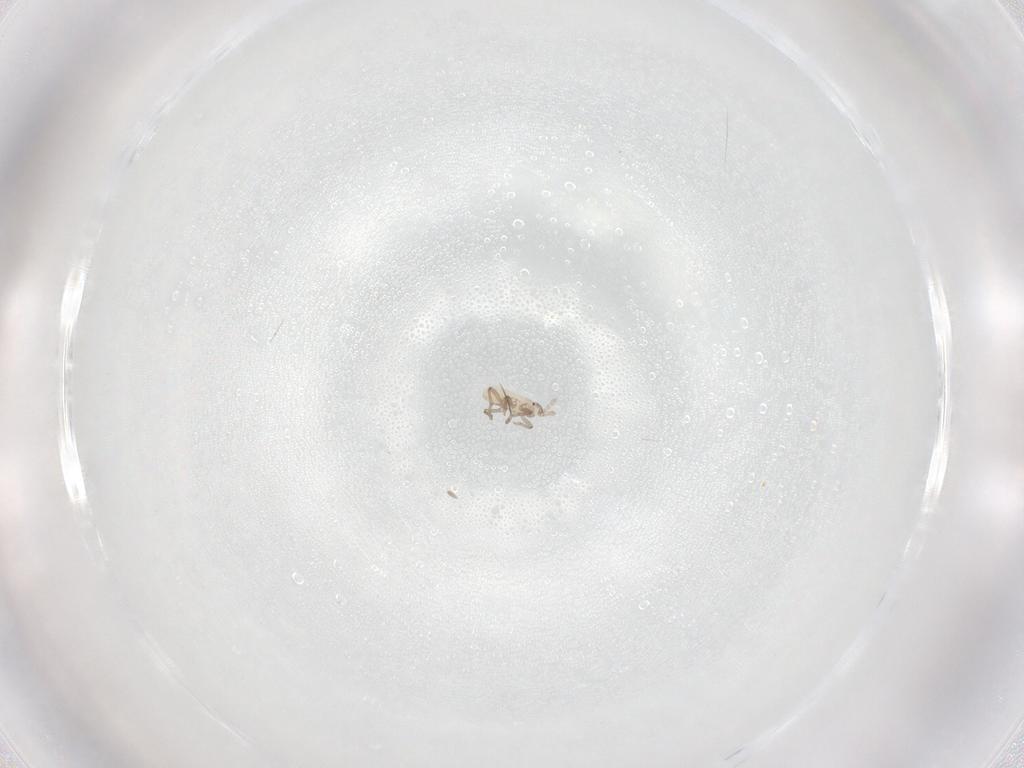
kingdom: Animalia
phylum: Arthropoda
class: Insecta
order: Hemiptera
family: Aphididae
